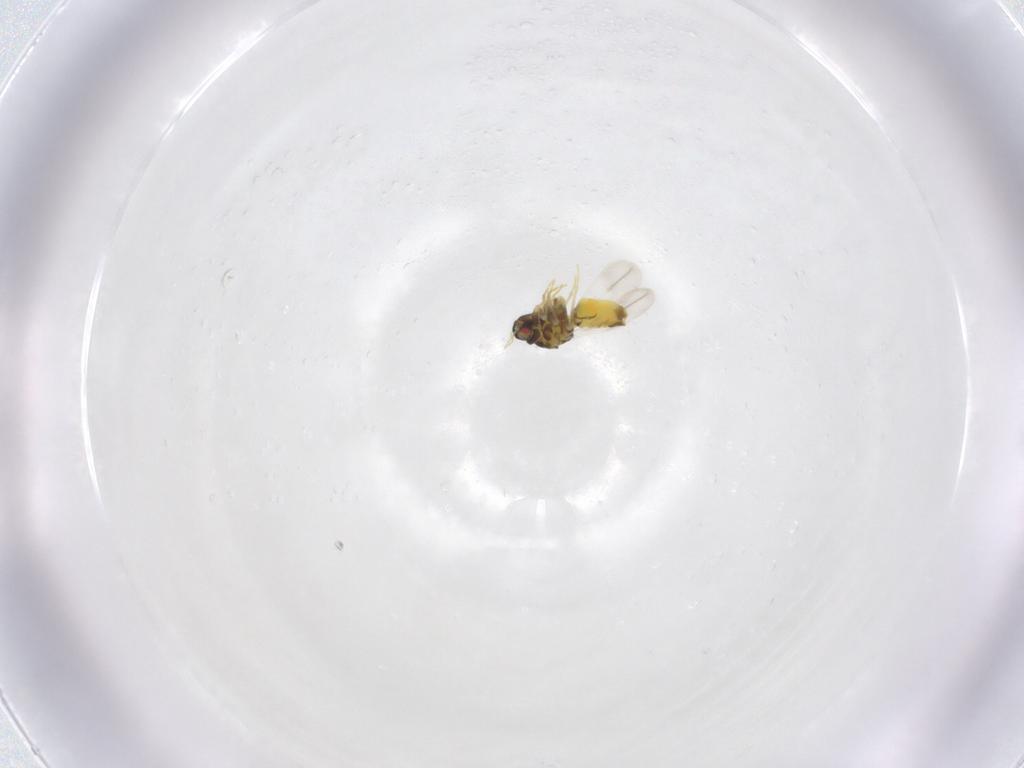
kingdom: Animalia
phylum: Arthropoda
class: Insecta
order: Hemiptera
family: Aleyrodidae
